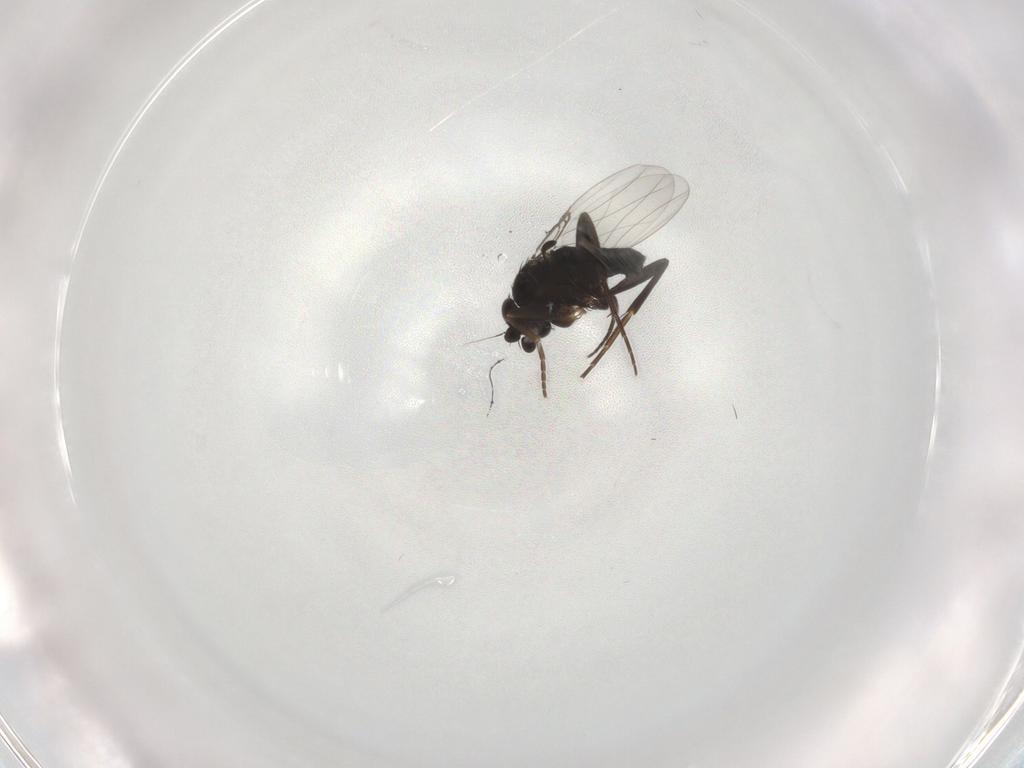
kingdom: Animalia
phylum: Arthropoda
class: Insecta
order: Diptera
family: Phoridae
